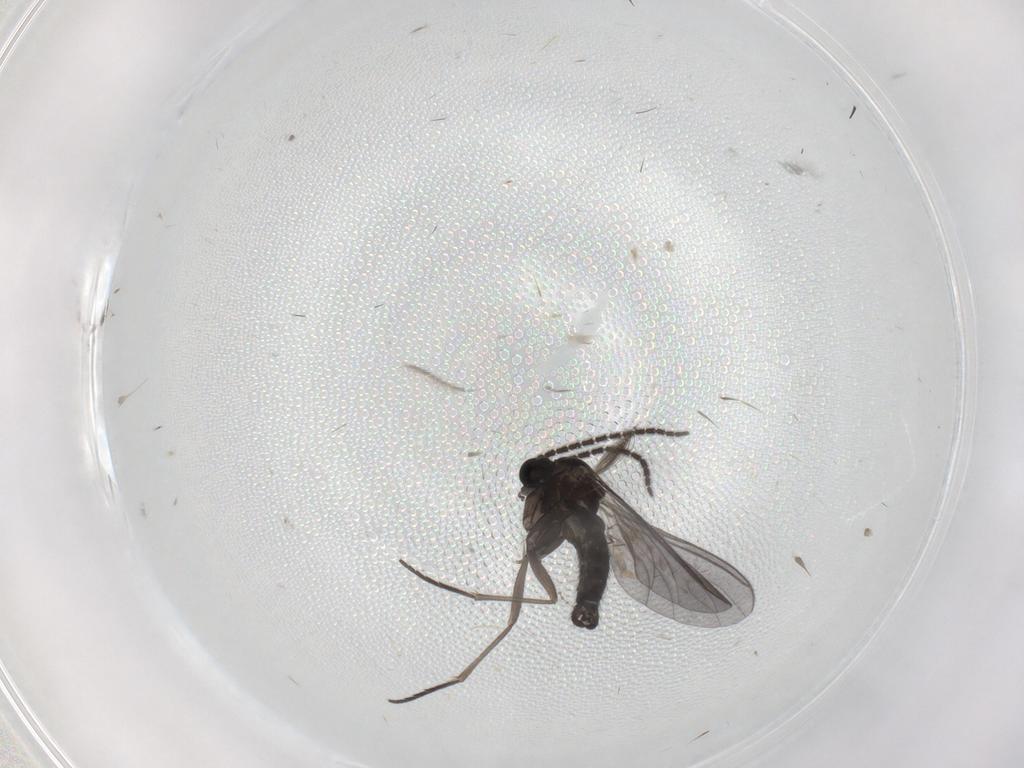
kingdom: Animalia
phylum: Arthropoda
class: Insecta
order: Diptera
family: Sciaridae
